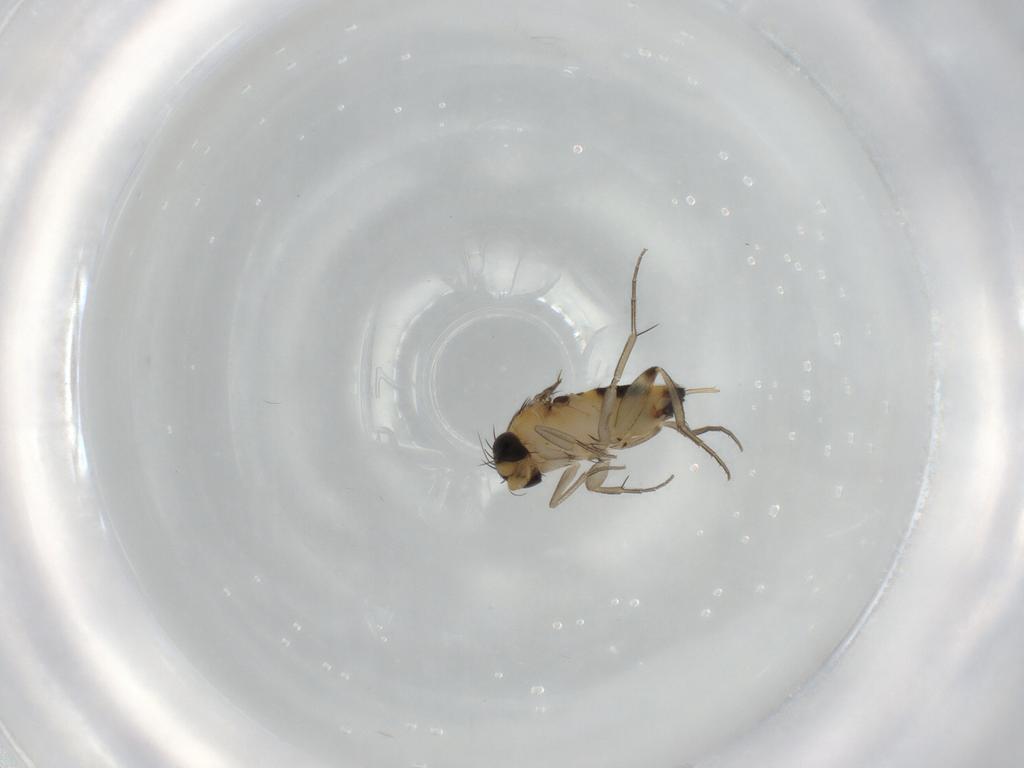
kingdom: Animalia
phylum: Arthropoda
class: Insecta
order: Diptera
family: Phoridae
